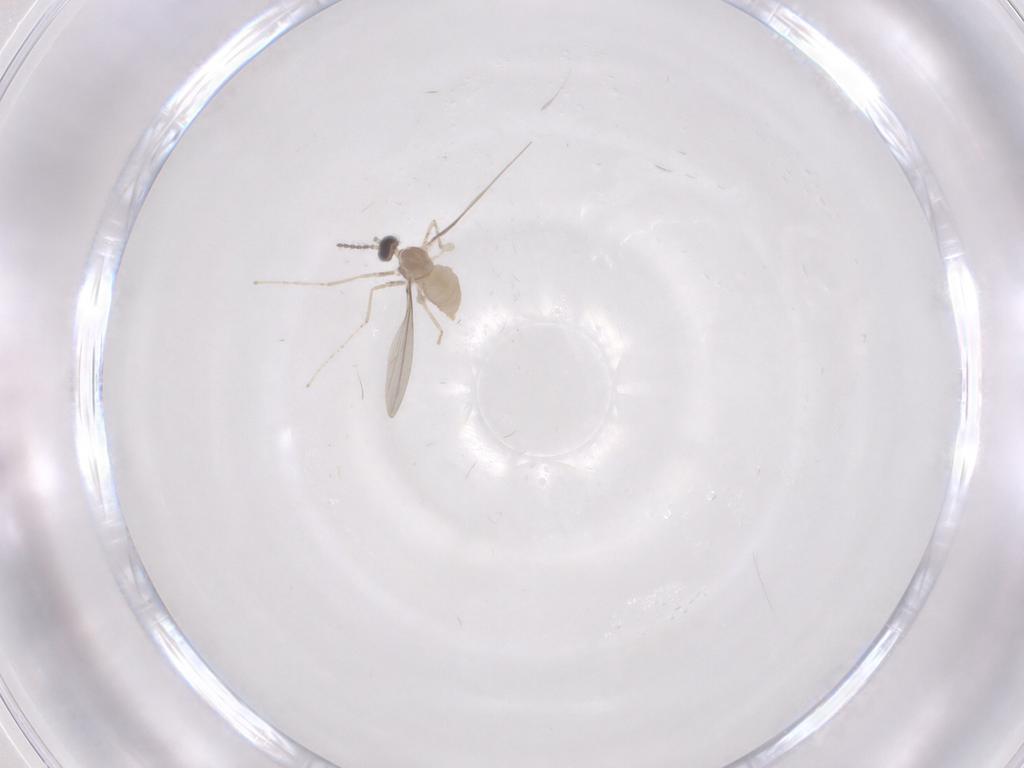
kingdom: Animalia
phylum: Arthropoda
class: Insecta
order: Diptera
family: Cecidomyiidae
